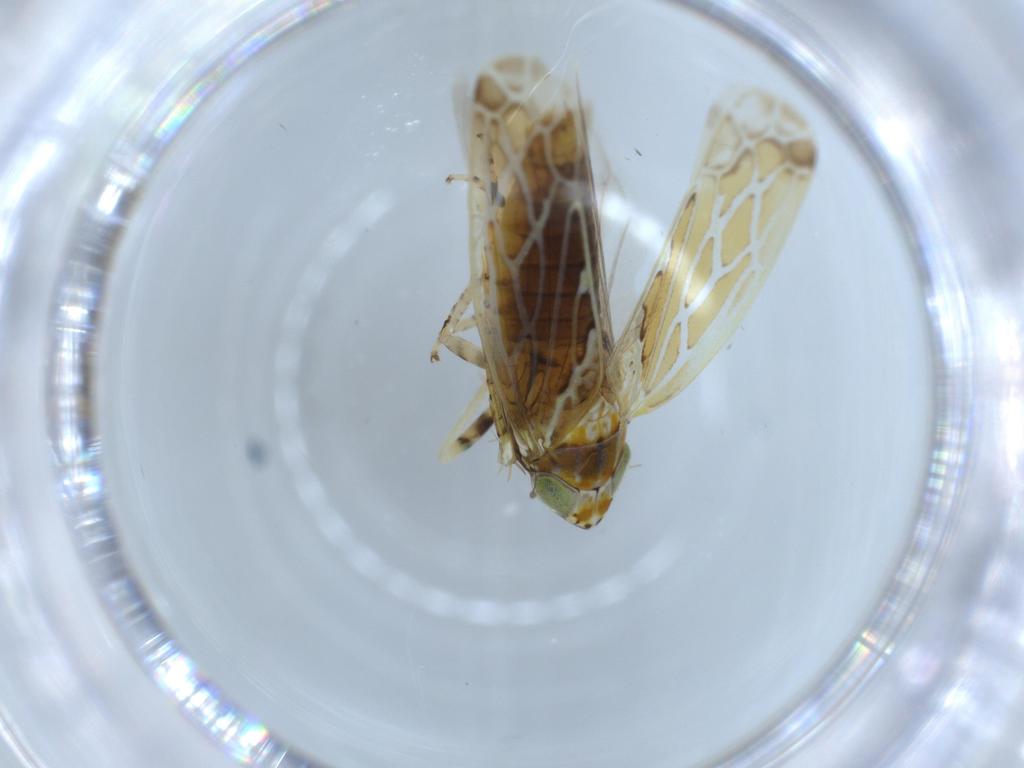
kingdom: Animalia
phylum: Arthropoda
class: Insecta
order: Hemiptera
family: Cicadellidae
